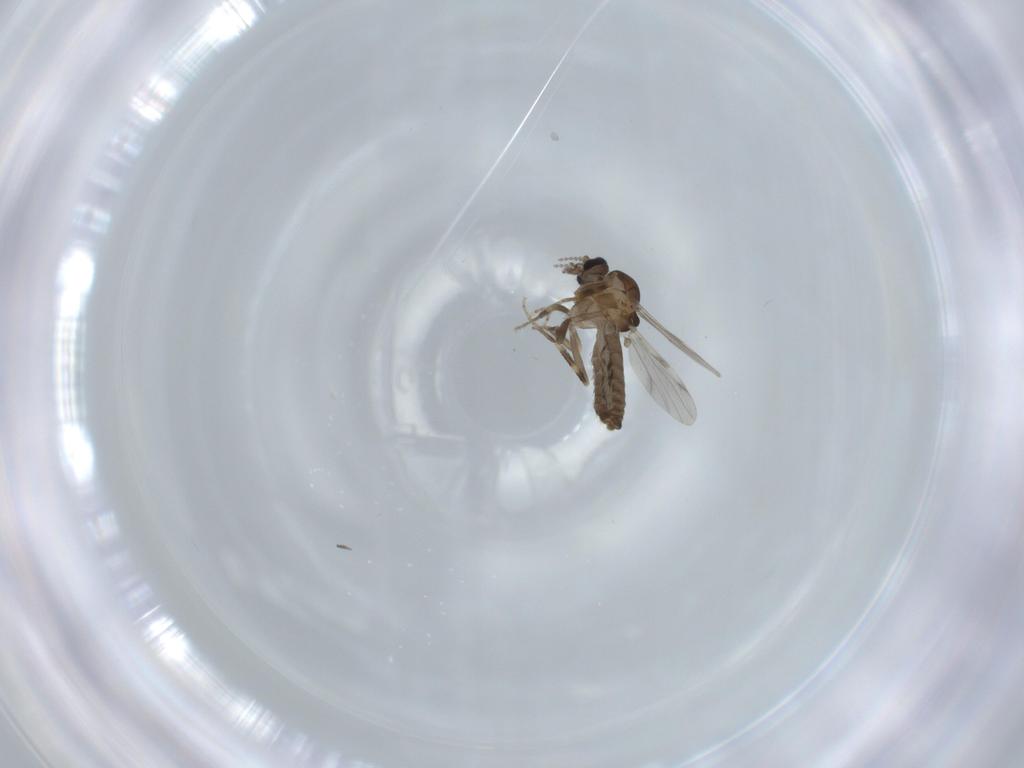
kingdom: Animalia
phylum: Arthropoda
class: Insecta
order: Diptera
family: Ceratopogonidae
